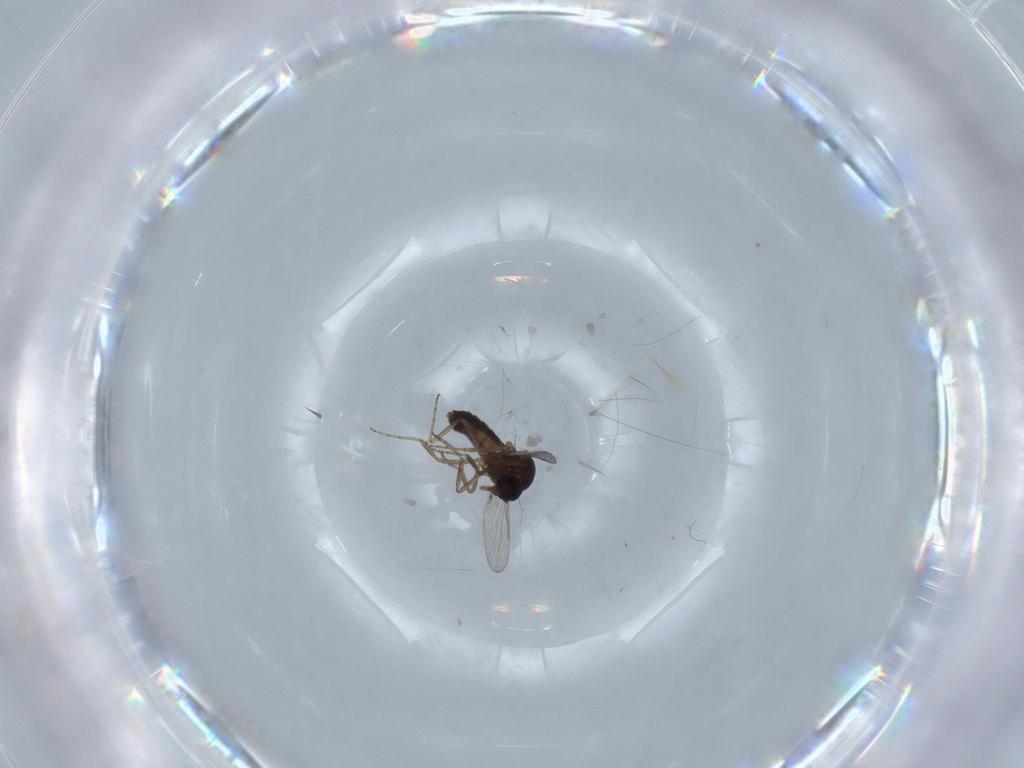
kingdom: Animalia
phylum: Arthropoda
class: Insecta
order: Diptera
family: Ceratopogonidae
